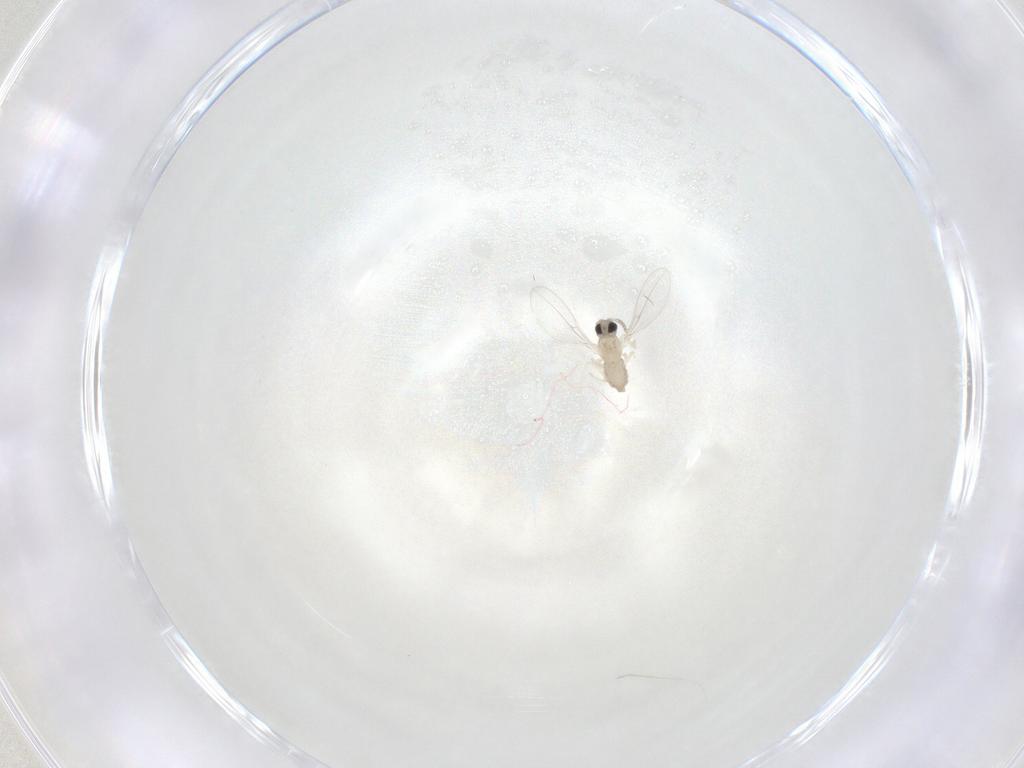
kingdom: Animalia
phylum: Arthropoda
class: Insecta
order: Diptera
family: Cecidomyiidae
